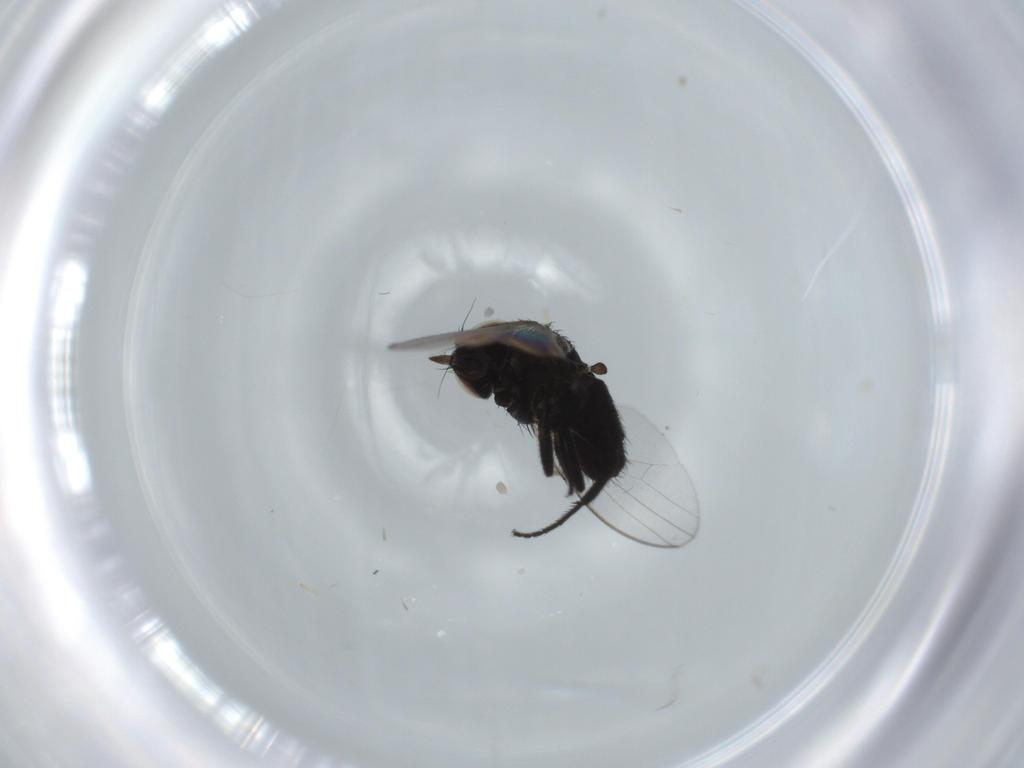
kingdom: Animalia
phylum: Arthropoda
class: Insecta
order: Diptera
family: Milichiidae
